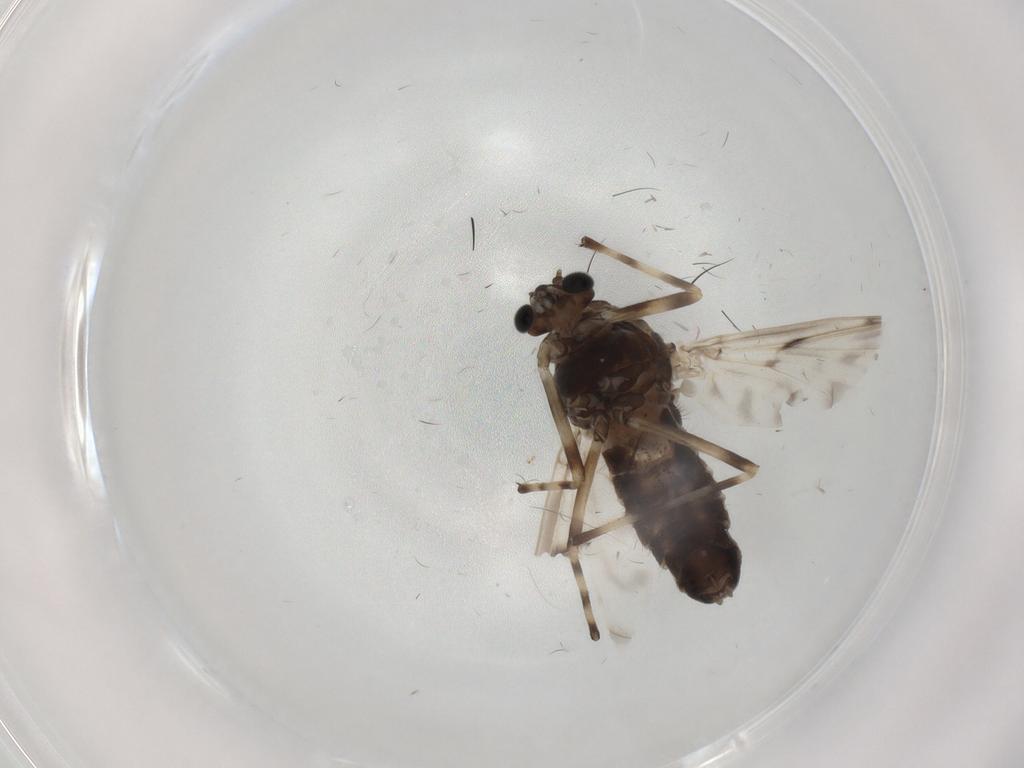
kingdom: Animalia
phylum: Arthropoda
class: Insecta
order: Diptera
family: Chironomidae
